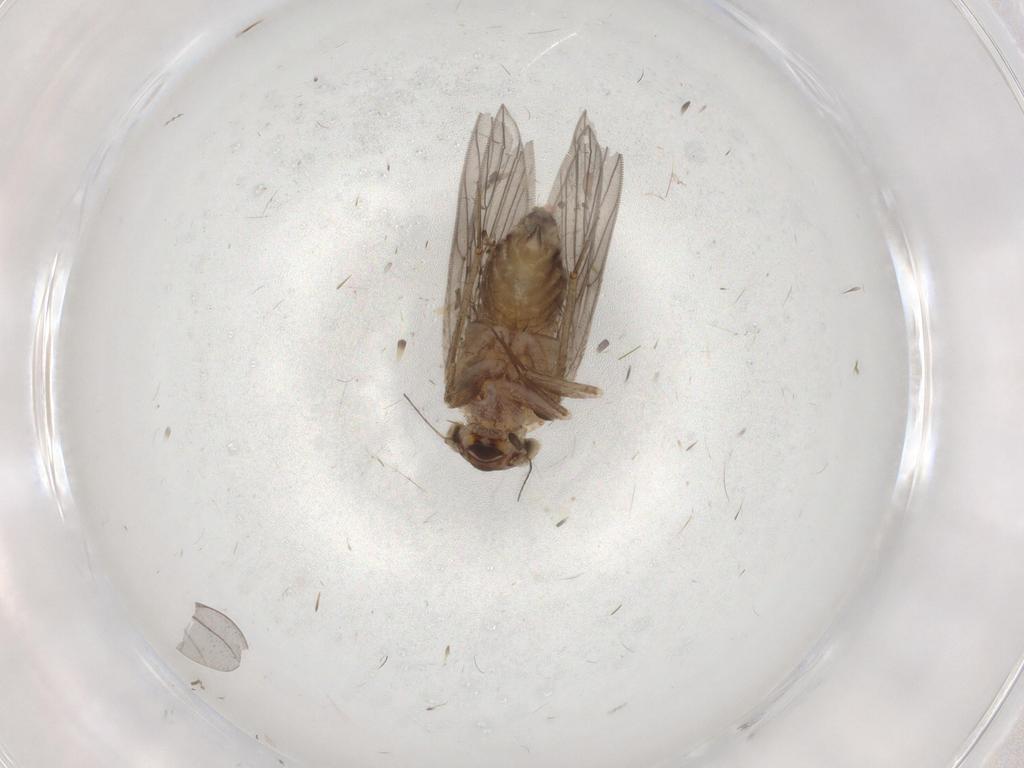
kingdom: Animalia
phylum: Arthropoda
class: Insecta
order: Psocodea
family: Lepidopsocidae
